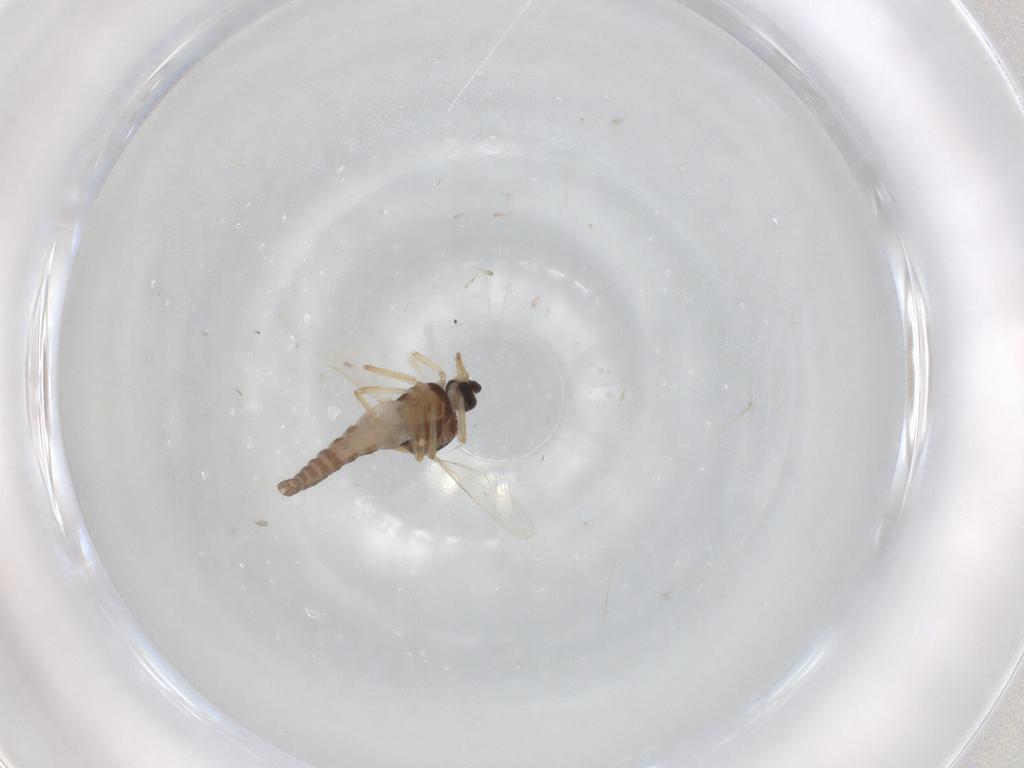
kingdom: Animalia
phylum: Arthropoda
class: Insecta
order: Diptera
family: Ceratopogonidae
